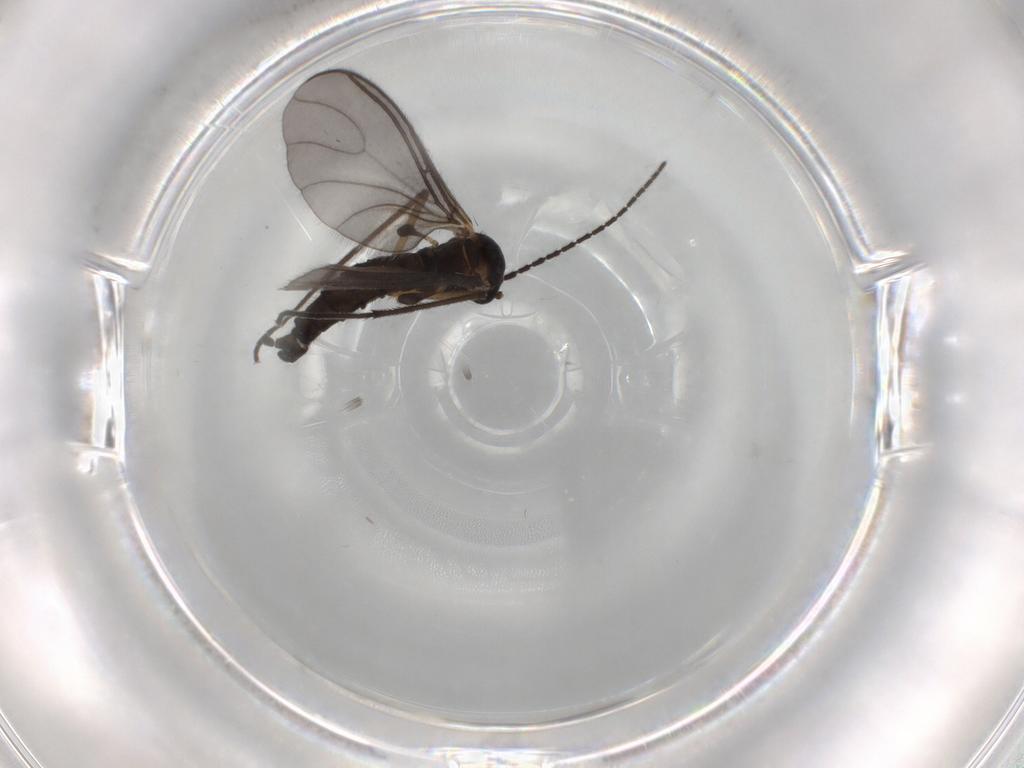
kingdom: Animalia
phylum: Arthropoda
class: Insecta
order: Diptera
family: Sciaridae
